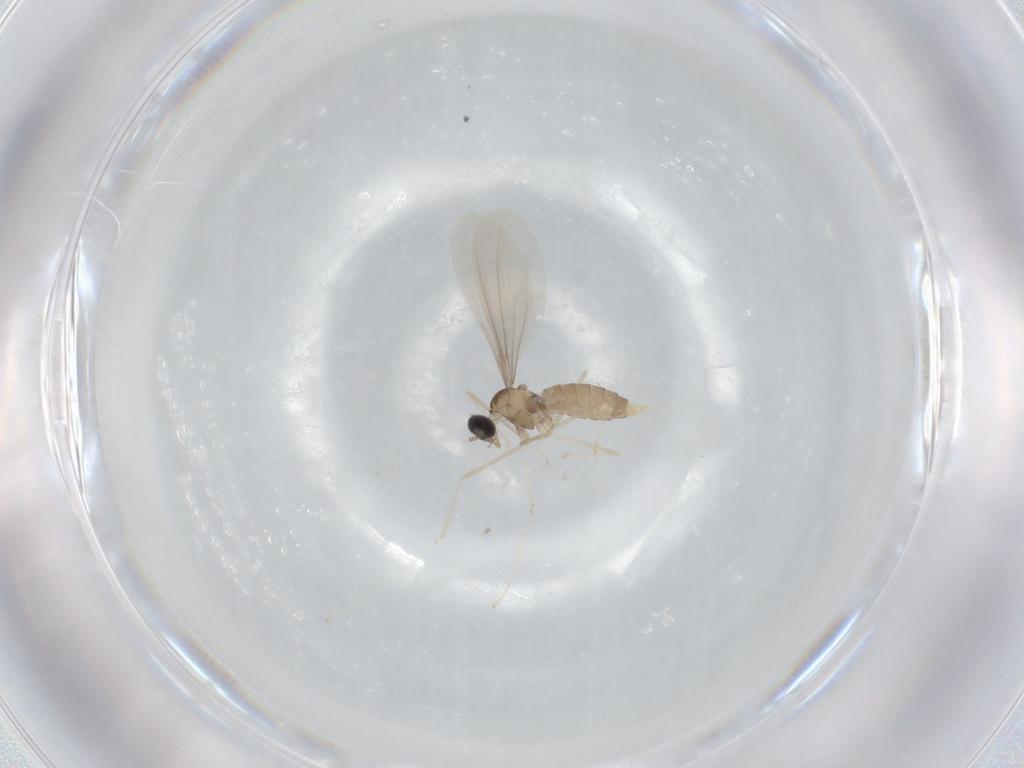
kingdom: Animalia
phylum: Arthropoda
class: Insecta
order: Diptera
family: Cecidomyiidae
